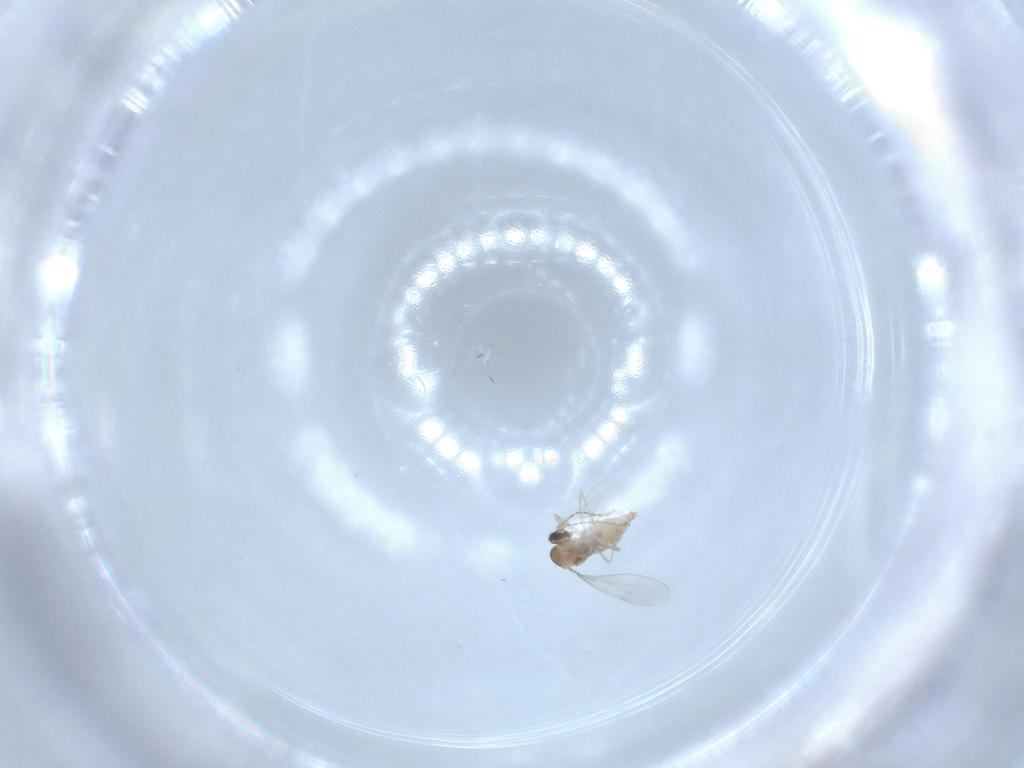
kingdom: Animalia
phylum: Arthropoda
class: Insecta
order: Diptera
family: Cecidomyiidae
